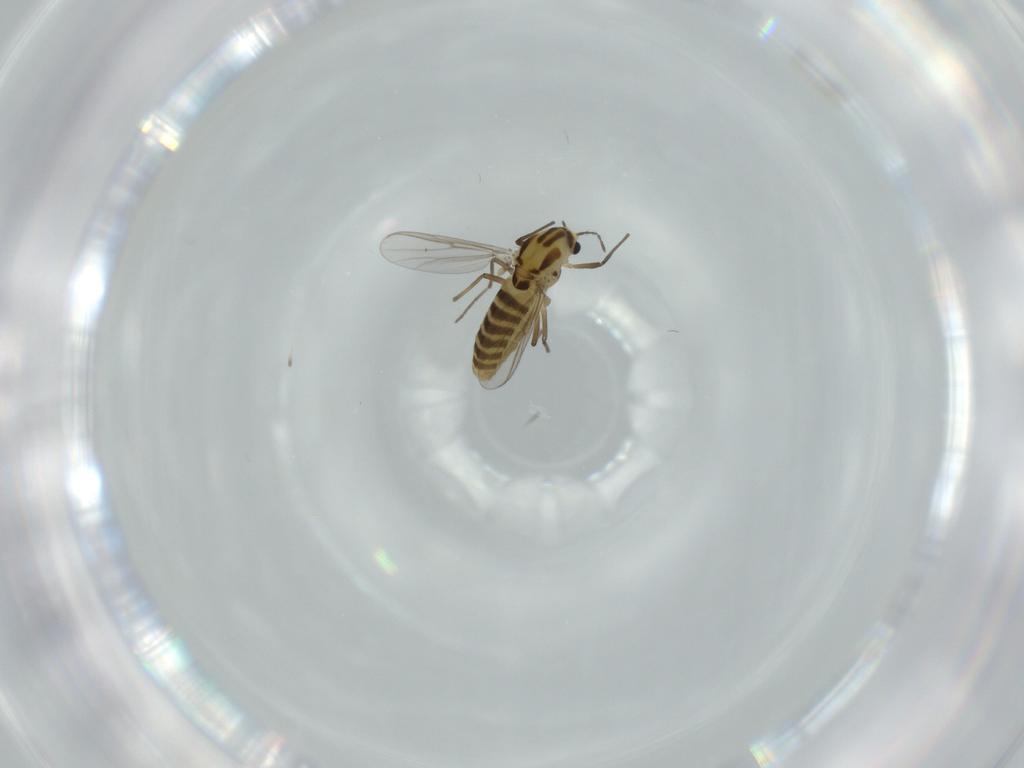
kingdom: Animalia
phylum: Arthropoda
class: Insecta
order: Diptera
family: Chironomidae
